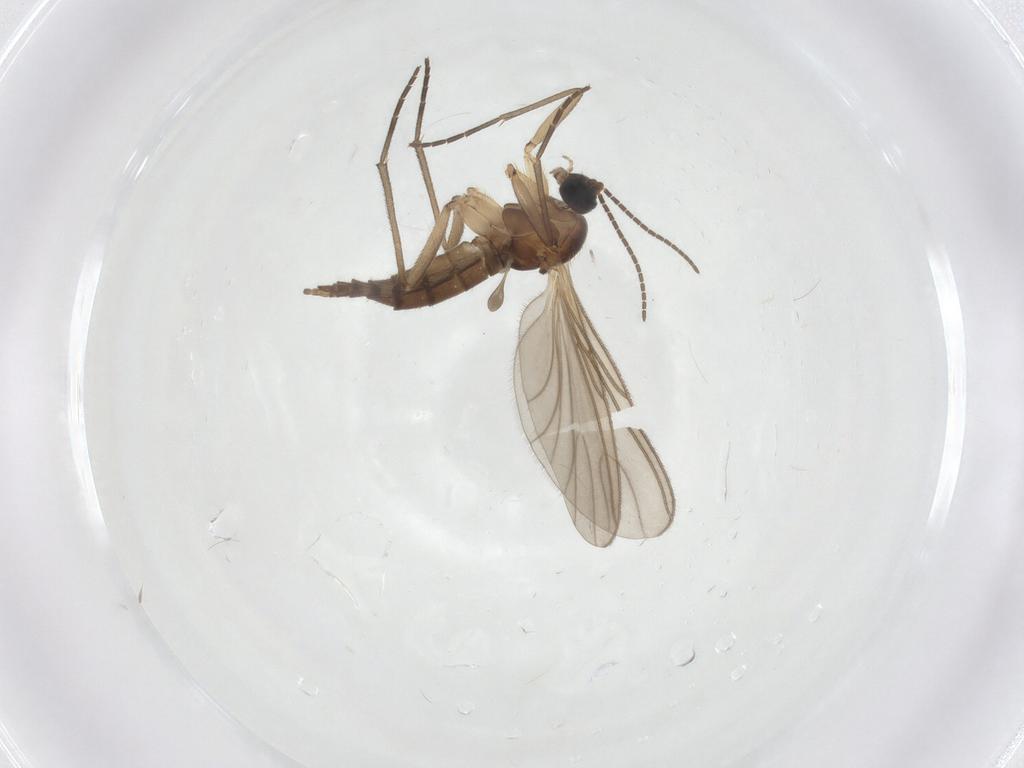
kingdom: Animalia
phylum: Arthropoda
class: Insecta
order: Diptera
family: Sciaridae
